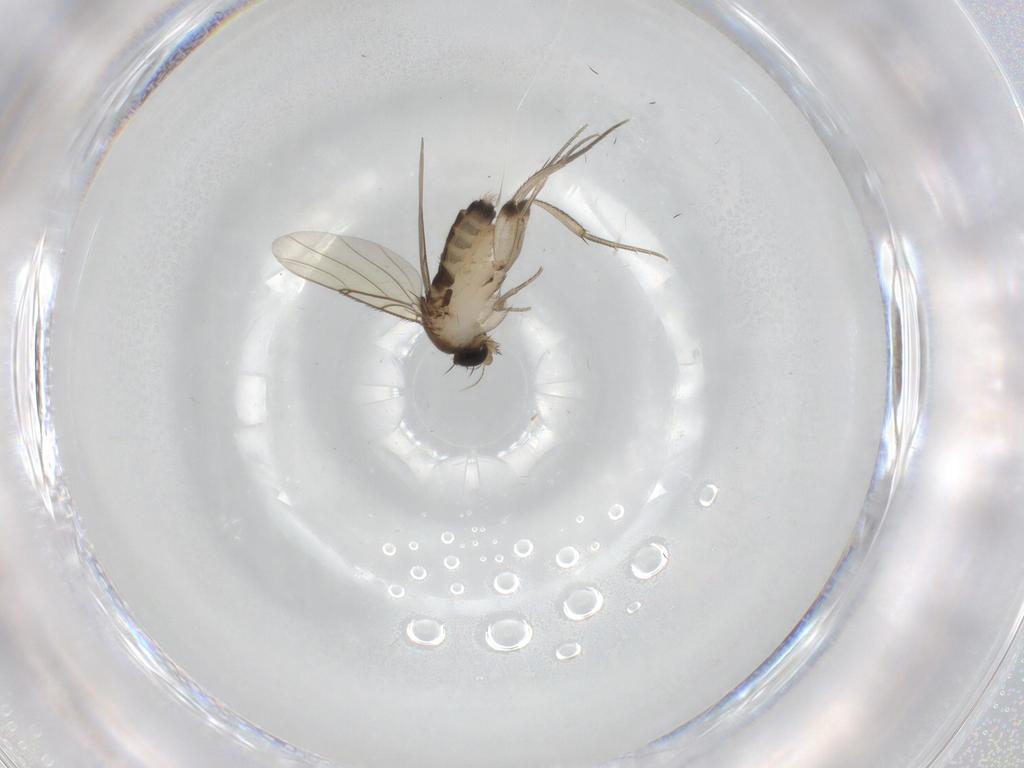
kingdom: Animalia
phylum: Arthropoda
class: Insecta
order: Diptera
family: Phoridae
